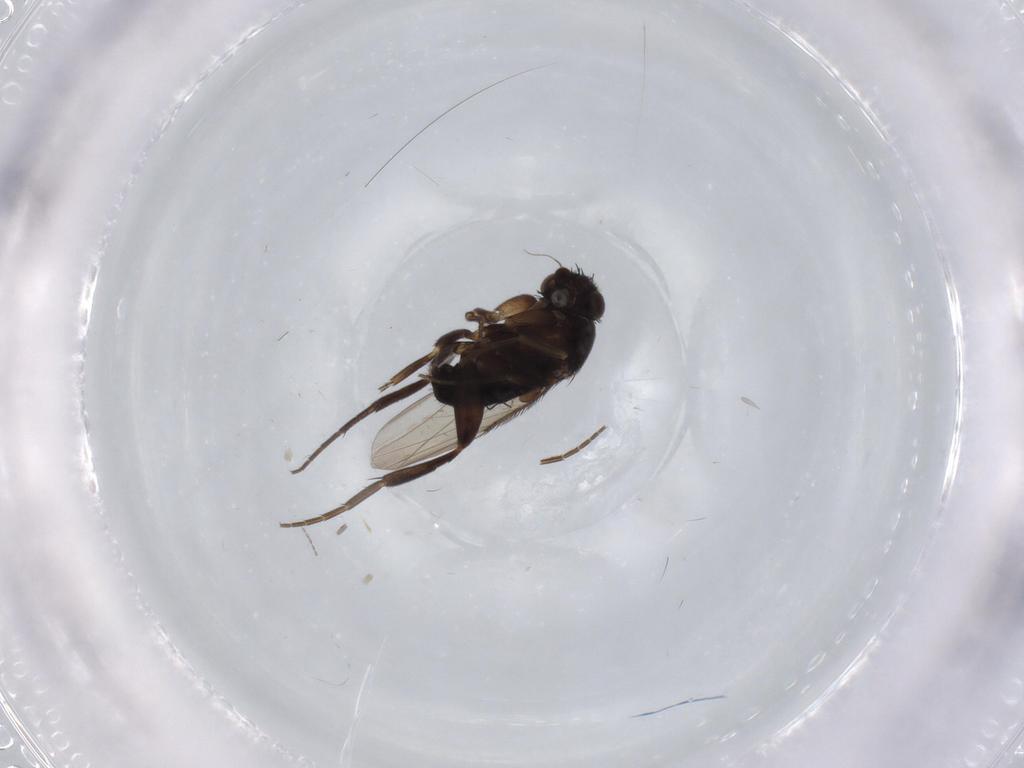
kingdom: Animalia
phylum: Arthropoda
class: Insecta
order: Diptera
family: Phoridae
